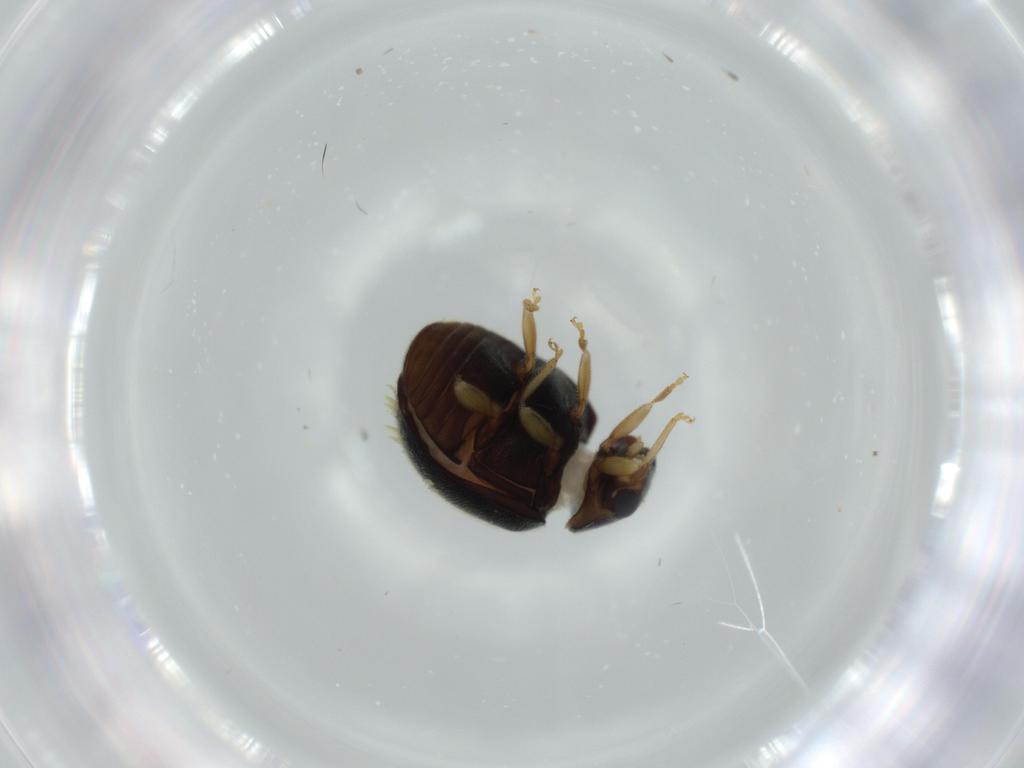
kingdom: Animalia
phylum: Arthropoda
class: Insecta
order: Coleoptera
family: Coccinellidae
